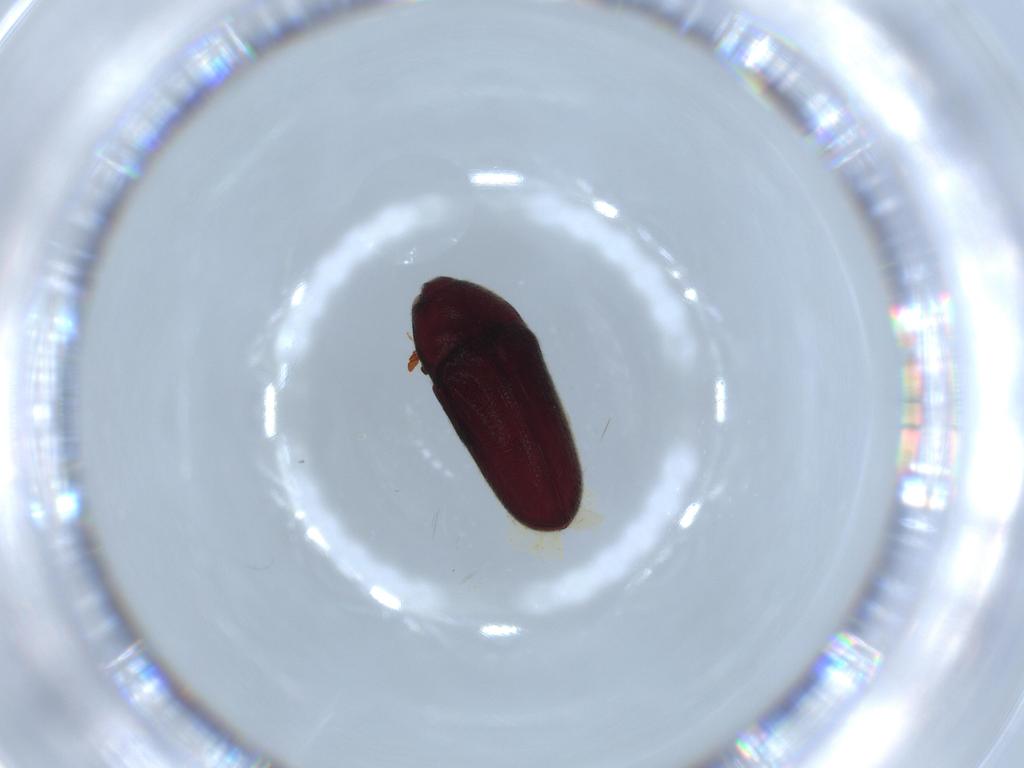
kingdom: Animalia
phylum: Arthropoda
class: Insecta
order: Coleoptera
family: Throscidae
